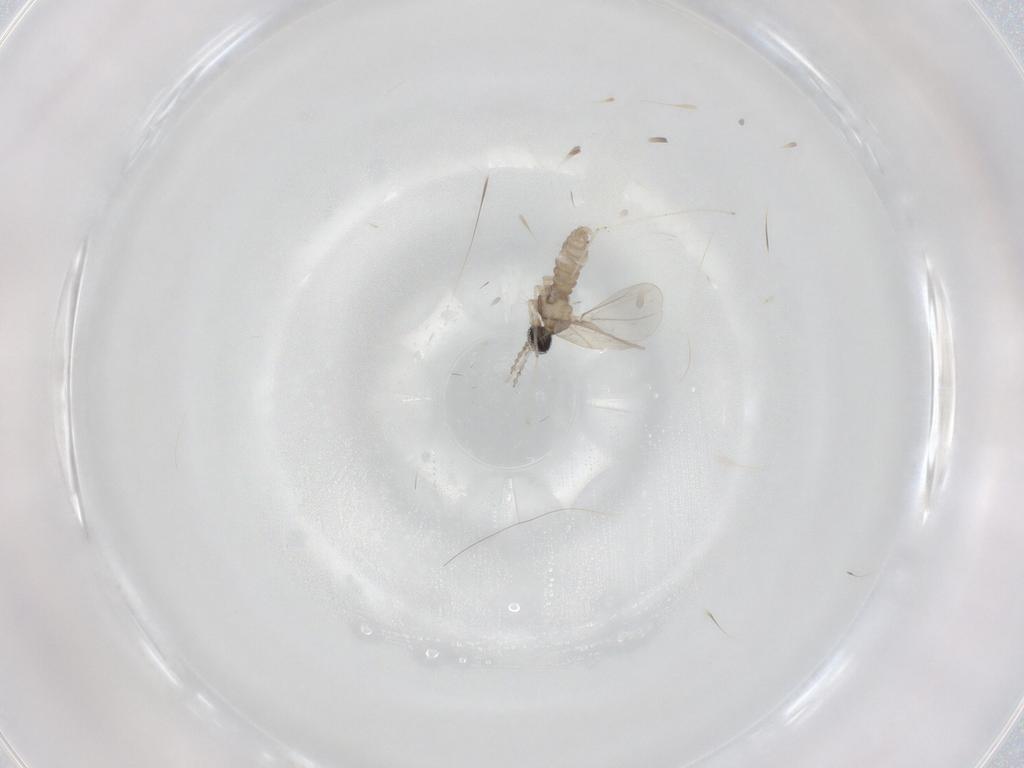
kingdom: Animalia
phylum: Arthropoda
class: Insecta
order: Diptera
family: Cecidomyiidae
